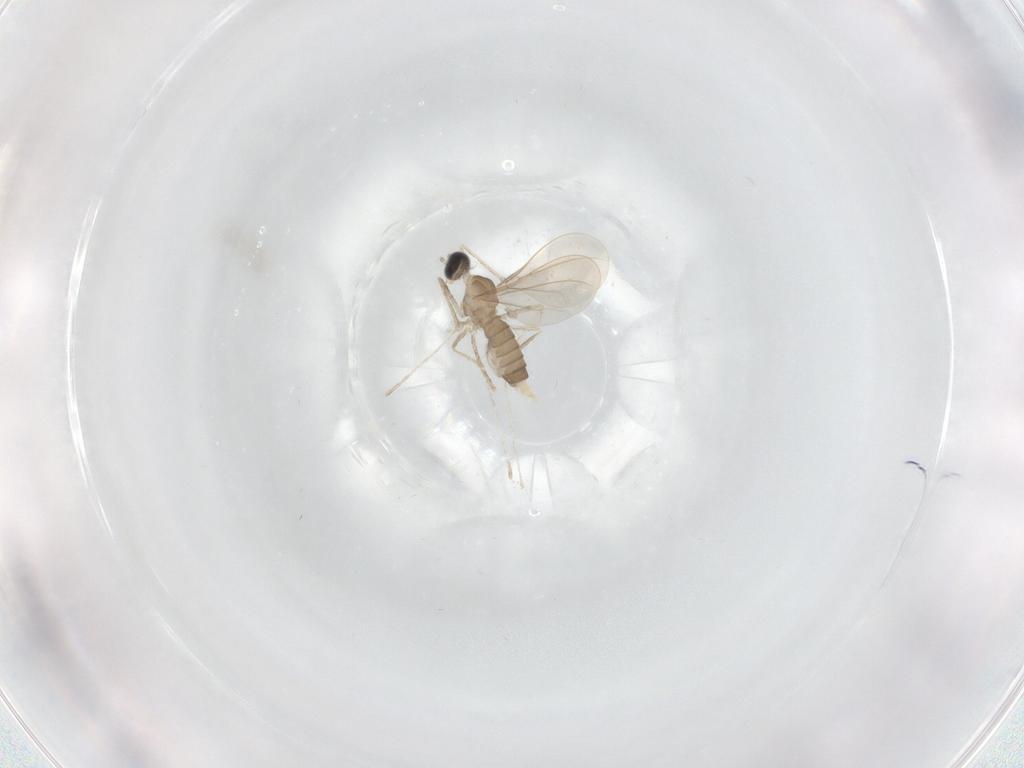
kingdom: Animalia
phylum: Arthropoda
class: Insecta
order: Diptera
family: Cecidomyiidae
